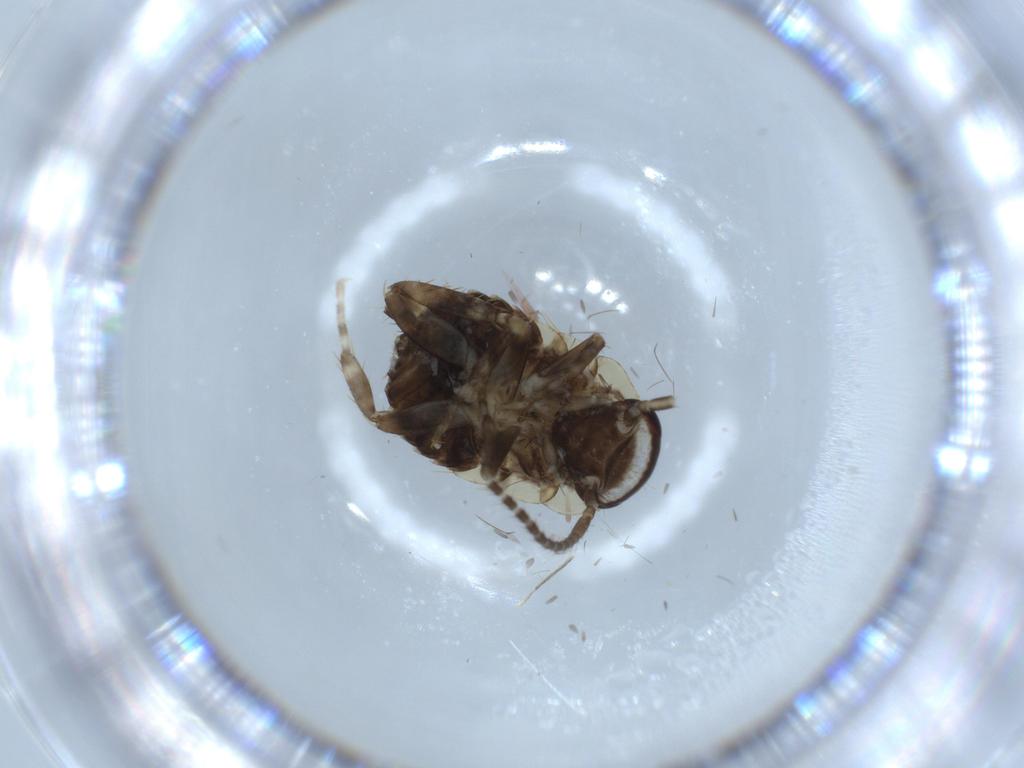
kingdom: Animalia
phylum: Arthropoda
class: Insecta
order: Blattodea
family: Ectobiidae
